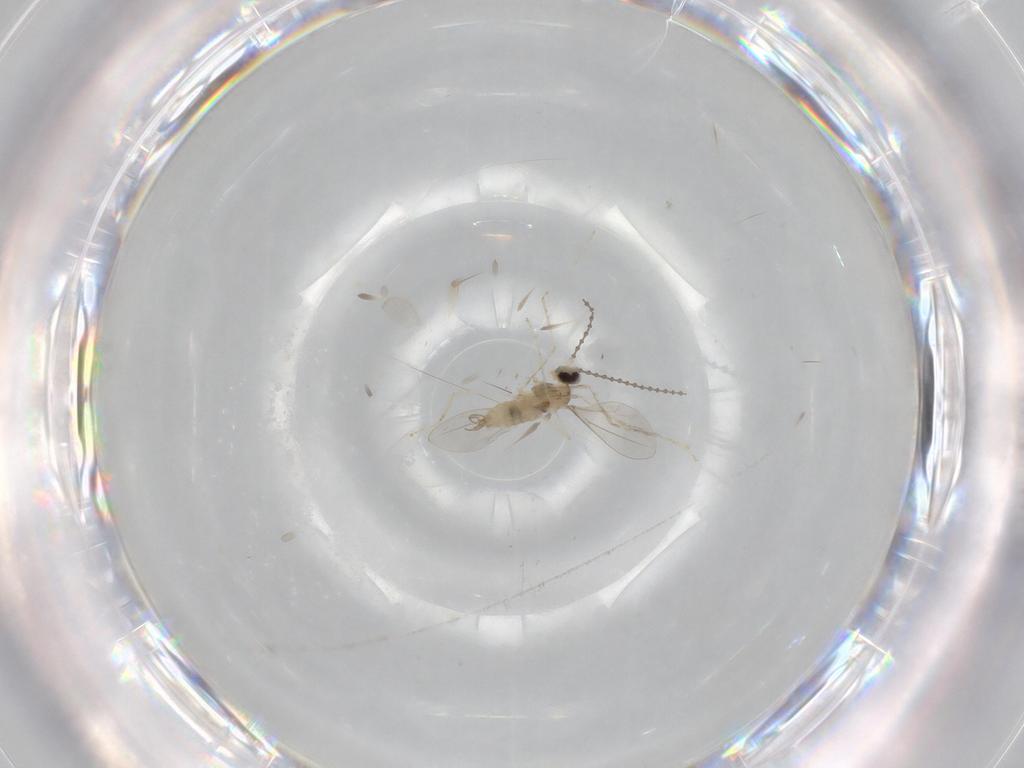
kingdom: Animalia
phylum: Arthropoda
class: Insecta
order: Diptera
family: Cecidomyiidae
